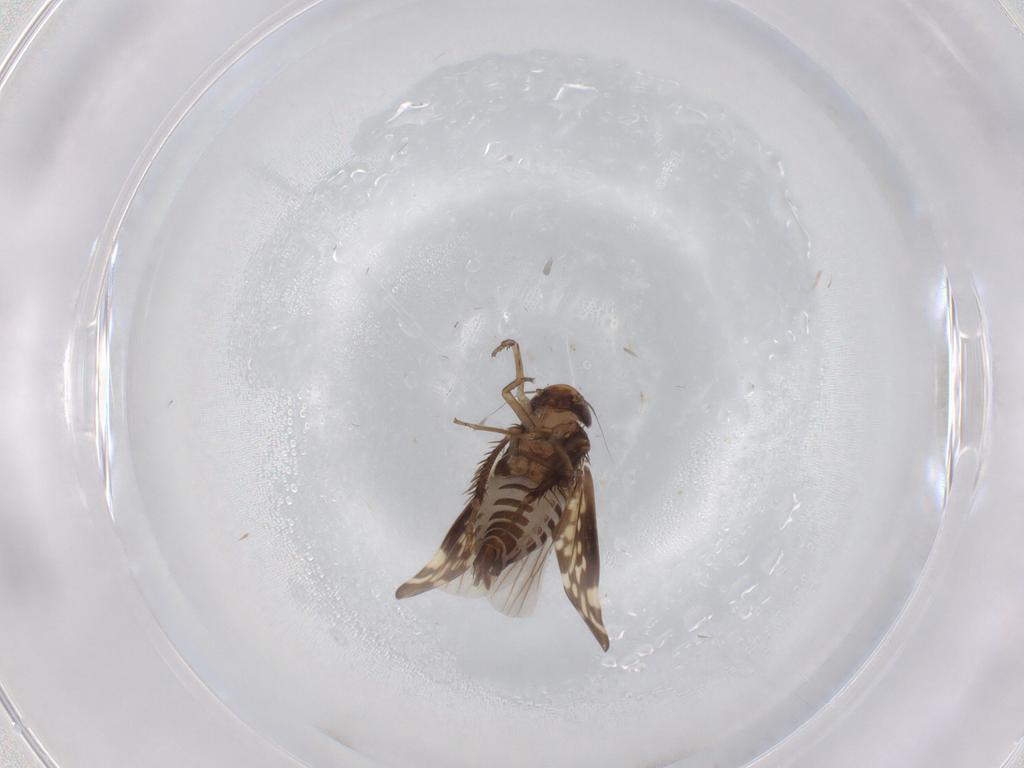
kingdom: Animalia
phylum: Arthropoda
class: Insecta
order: Hemiptera
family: Cicadellidae
